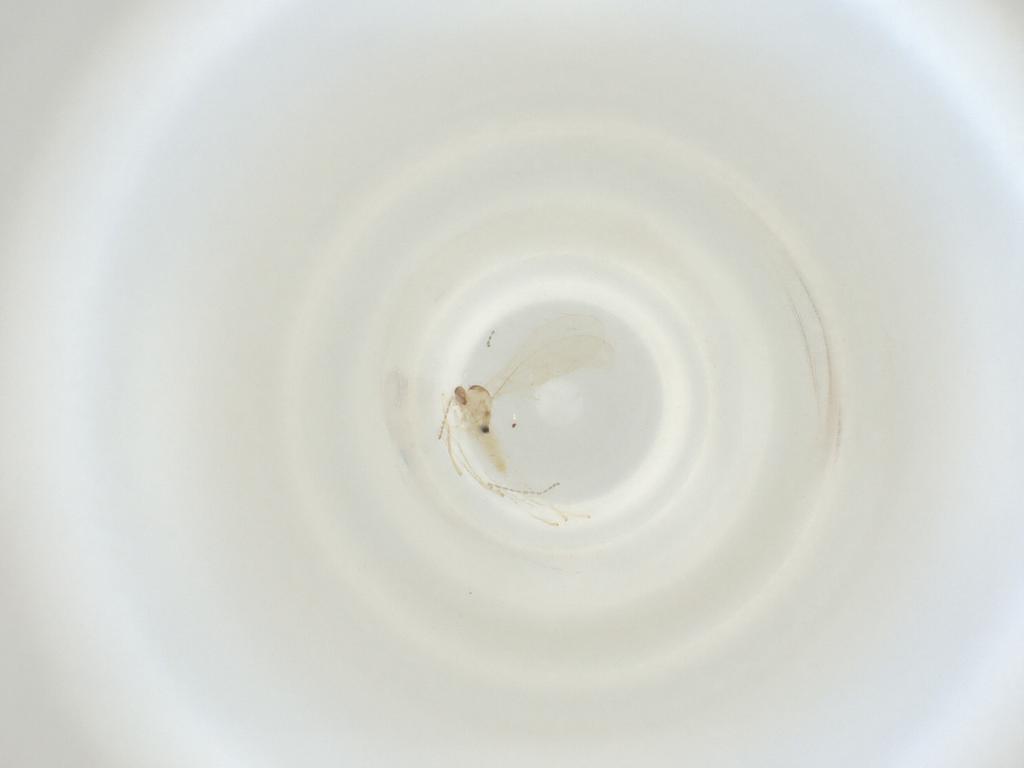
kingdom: Animalia
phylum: Arthropoda
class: Insecta
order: Diptera
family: Cecidomyiidae
